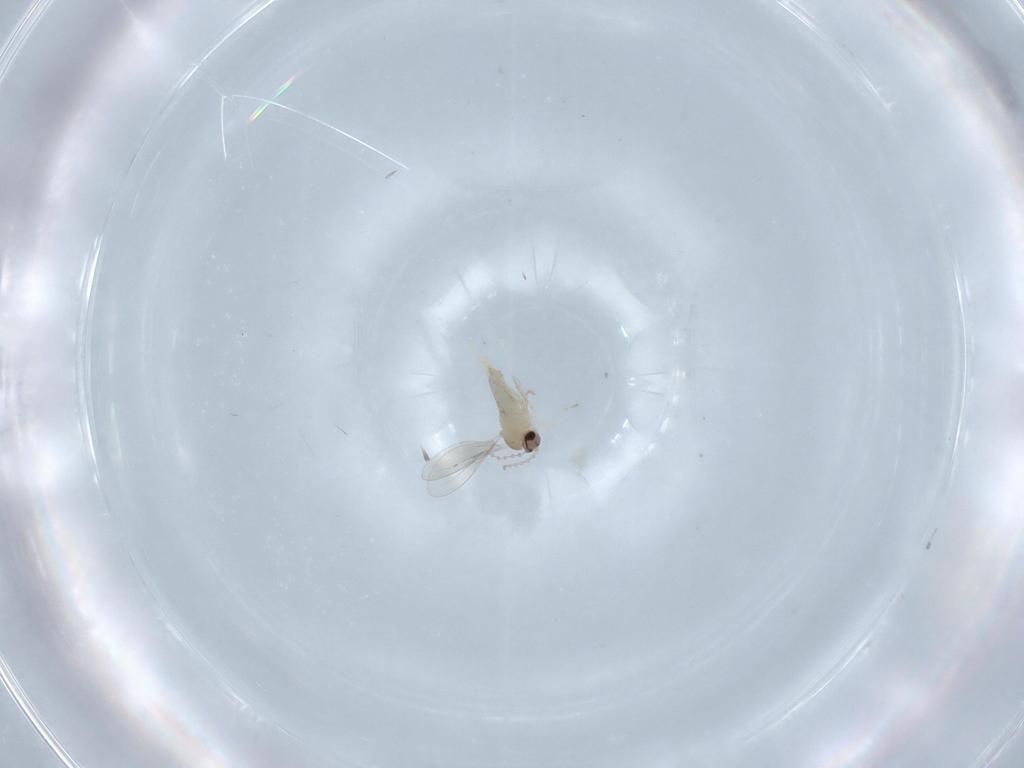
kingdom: Animalia
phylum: Arthropoda
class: Insecta
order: Diptera
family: Cecidomyiidae
